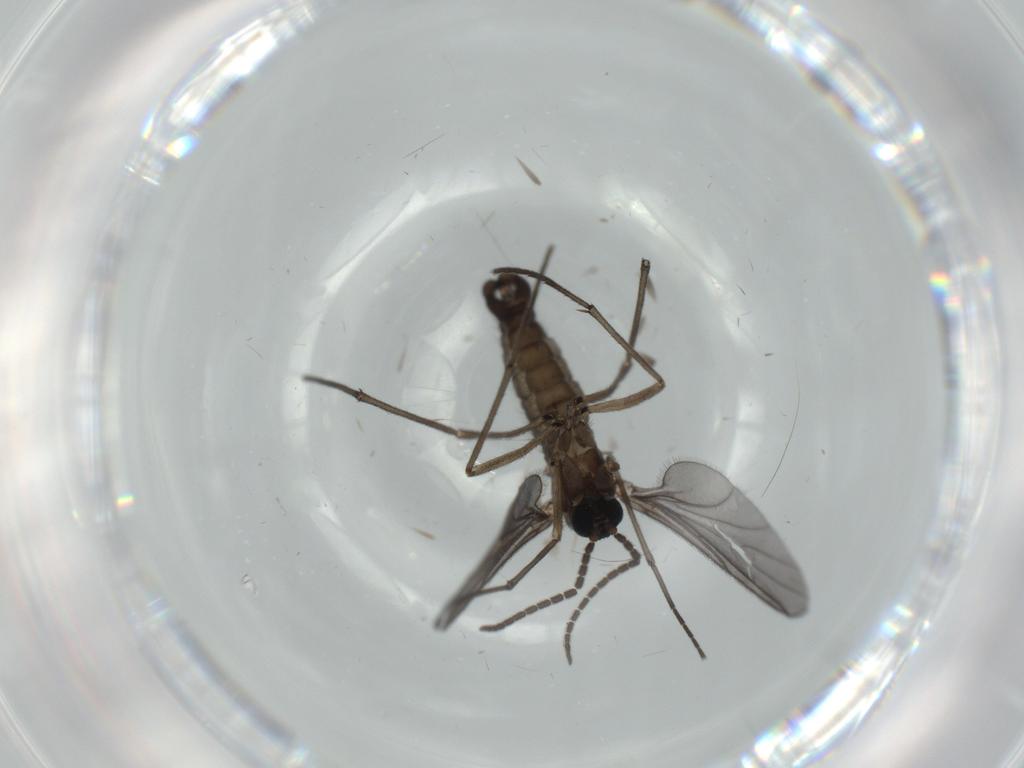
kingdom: Animalia
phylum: Arthropoda
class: Insecta
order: Diptera
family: Sciaridae
